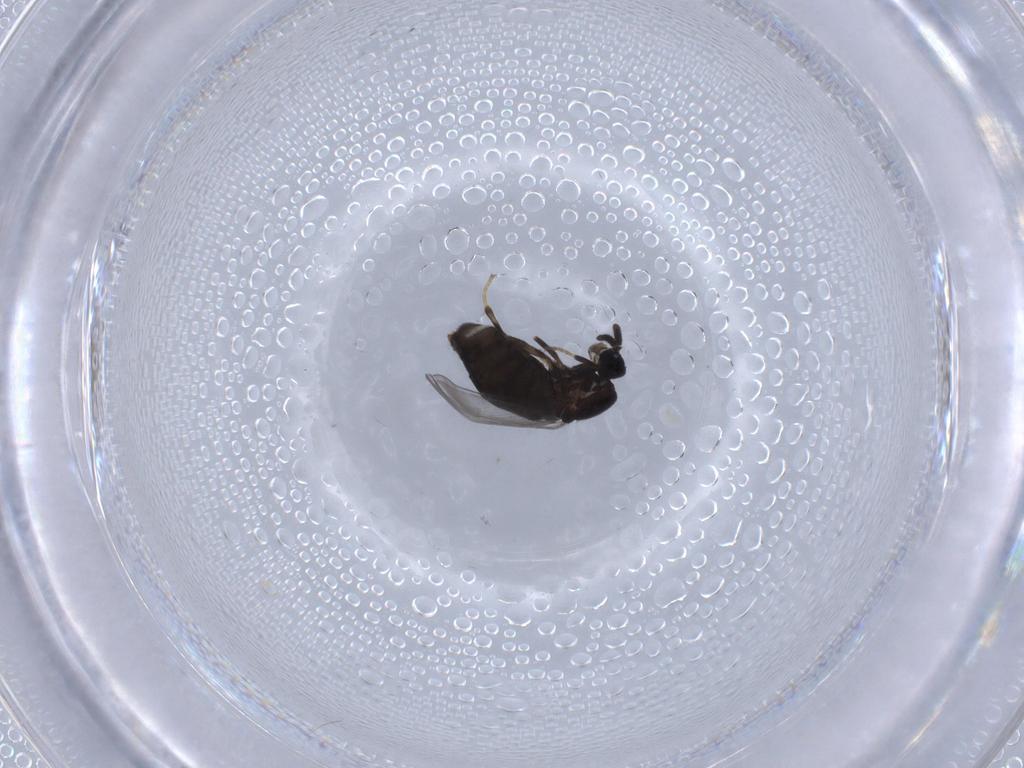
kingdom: Animalia
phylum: Arthropoda
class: Insecta
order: Diptera
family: Scatopsidae
